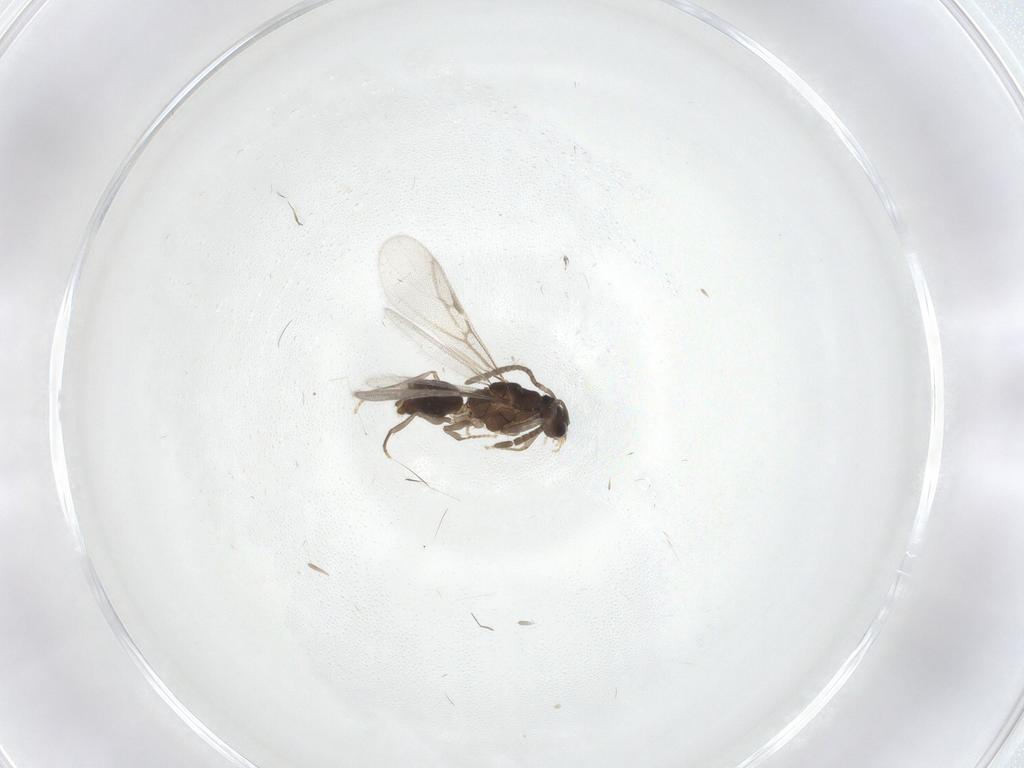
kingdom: Animalia
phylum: Arthropoda
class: Insecta
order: Hymenoptera
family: Formicidae
